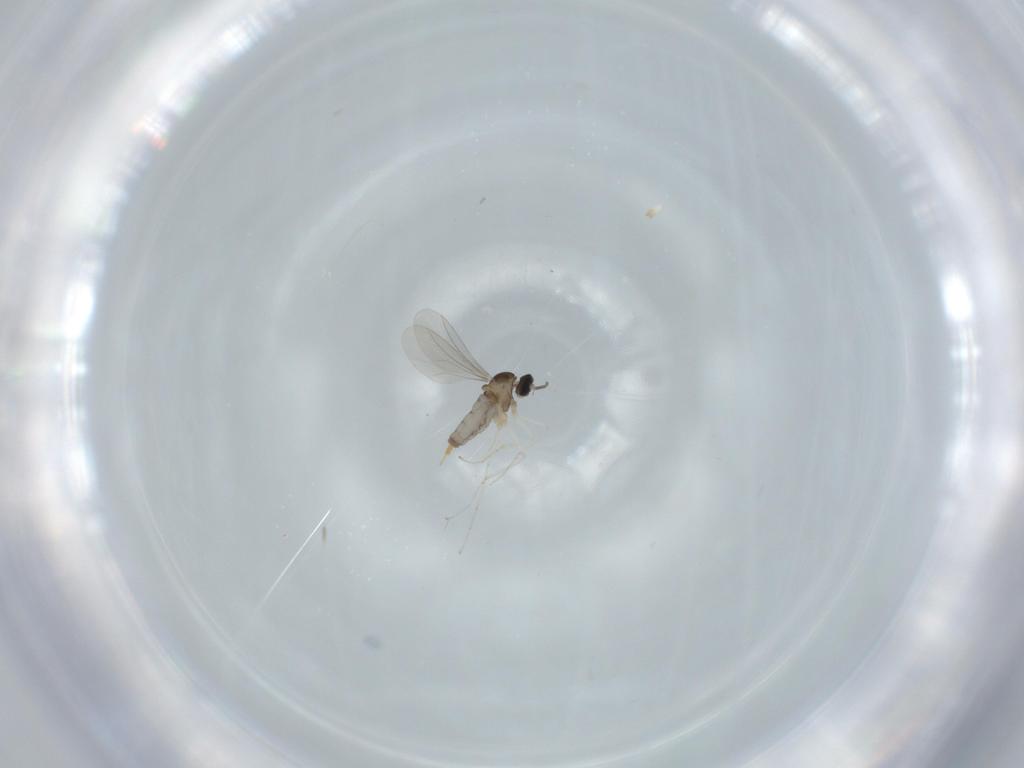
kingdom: Animalia
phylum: Arthropoda
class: Insecta
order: Diptera
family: Cecidomyiidae
